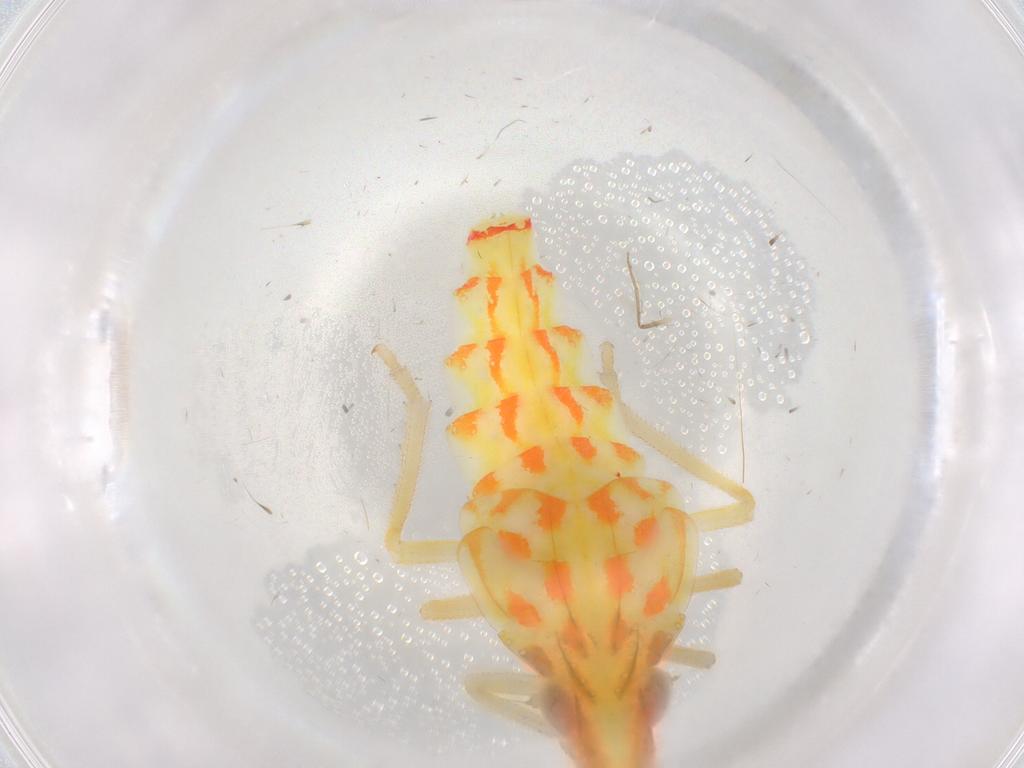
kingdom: Animalia
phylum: Arthropoda
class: Insecta
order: Hemiptera
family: Tropiduchidae
